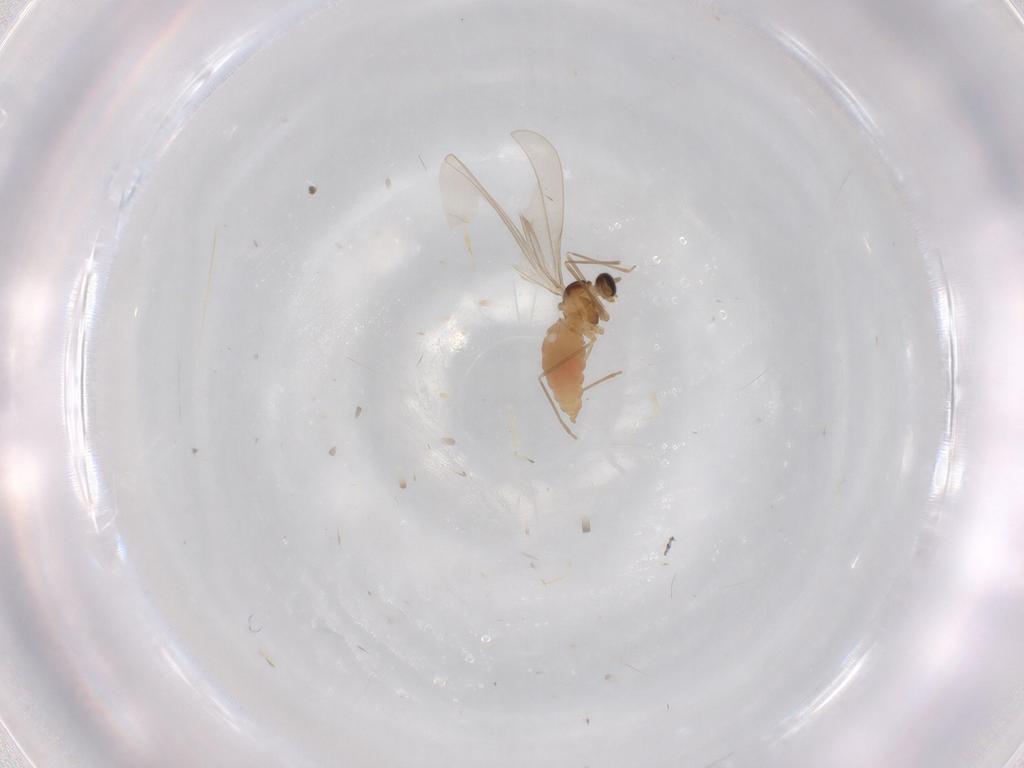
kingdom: Animalia
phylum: Arthropoda
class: Insecta
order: Diptera
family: Cecidomyiidae
